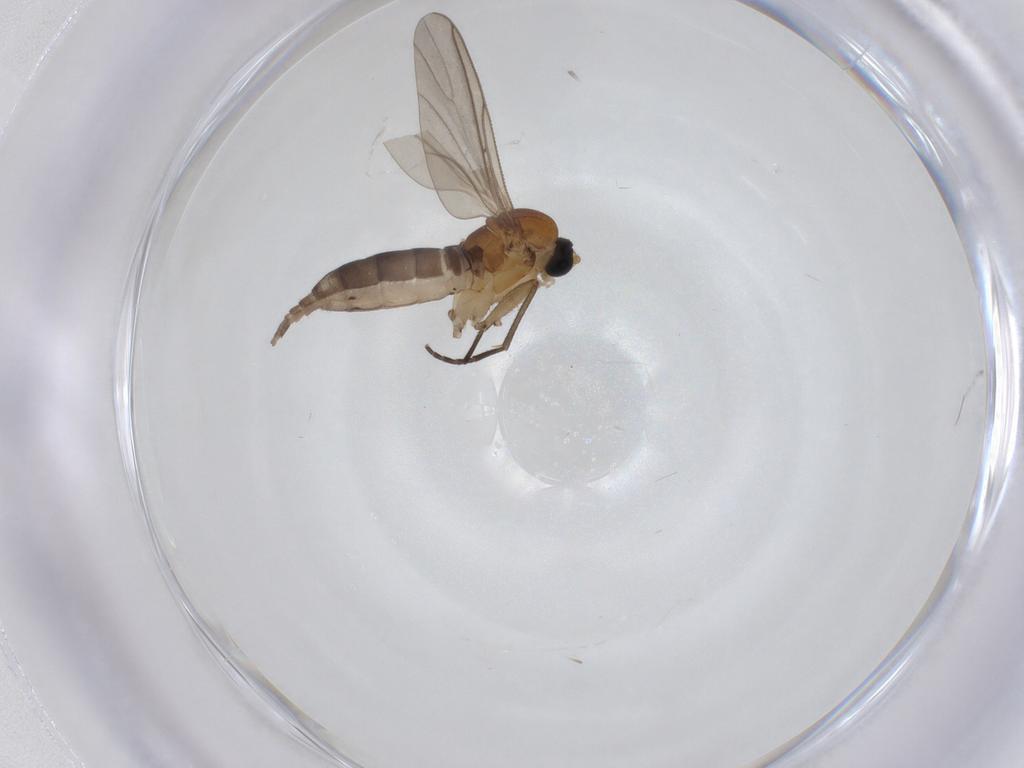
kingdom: Animalia
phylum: Arthropoda
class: Insecta
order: Diptera
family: Sciaridae
